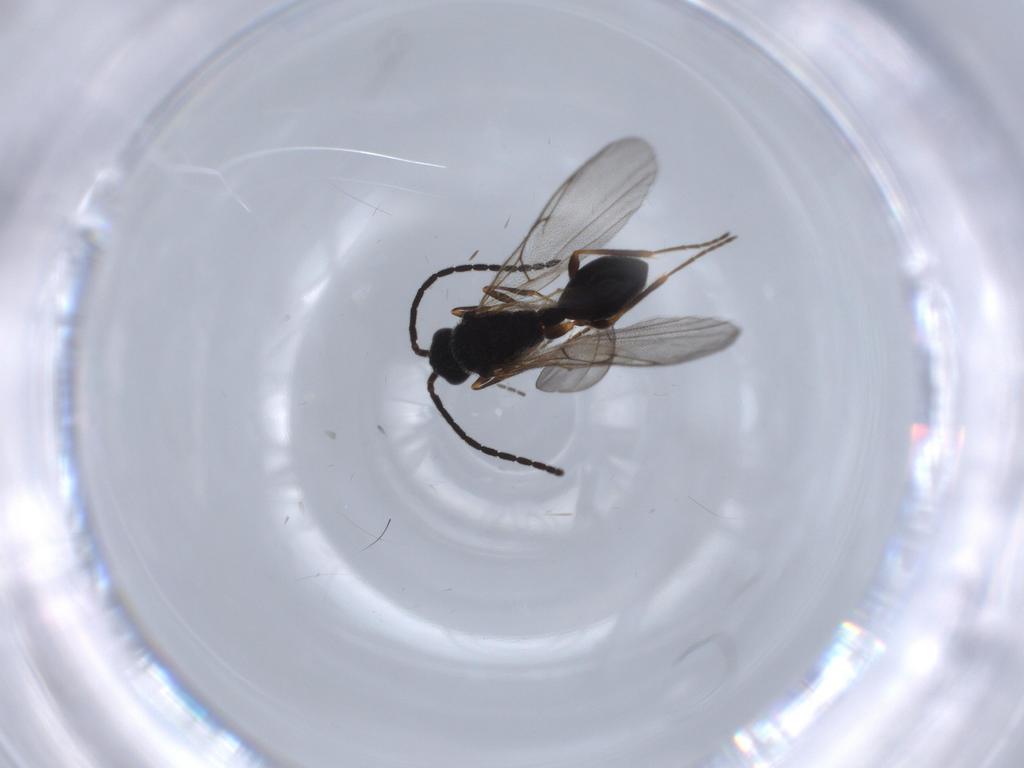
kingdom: Animalia
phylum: Arthropoda
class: Insecta
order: Hymenoptera
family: Diapriidae
